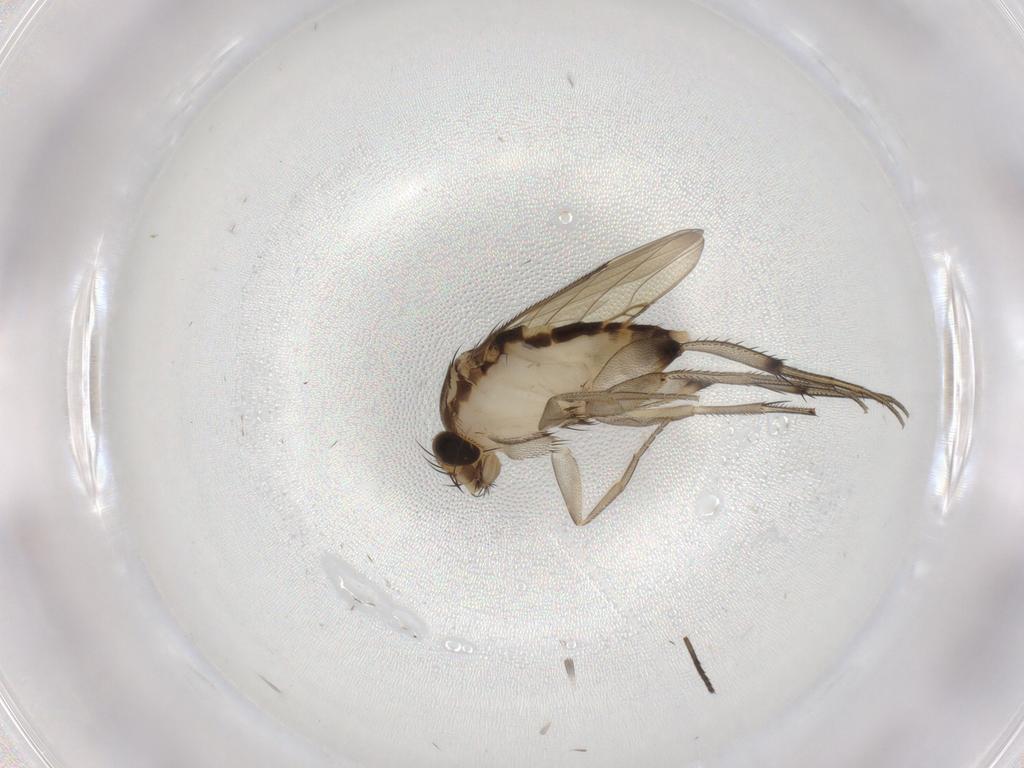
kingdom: Animalia
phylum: Arthropoda
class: Insecta
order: Diptera
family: Phoridae
